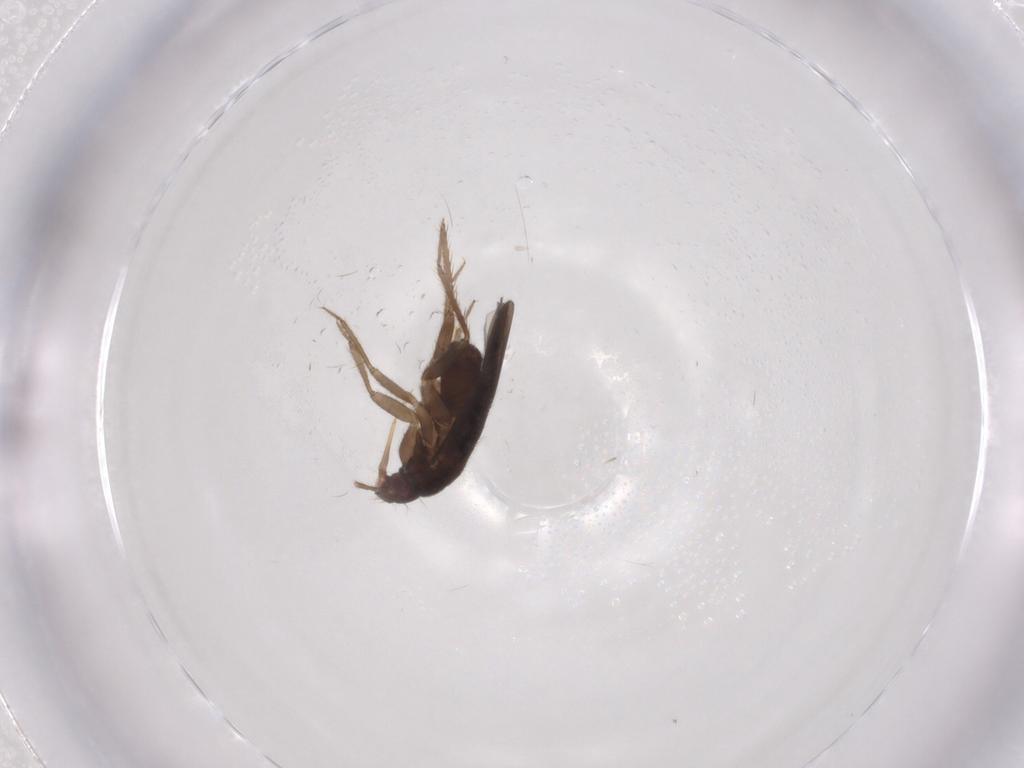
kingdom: Animalia
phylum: Arthropoda
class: Insecta
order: Hemiptera
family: Ceratocombidae
